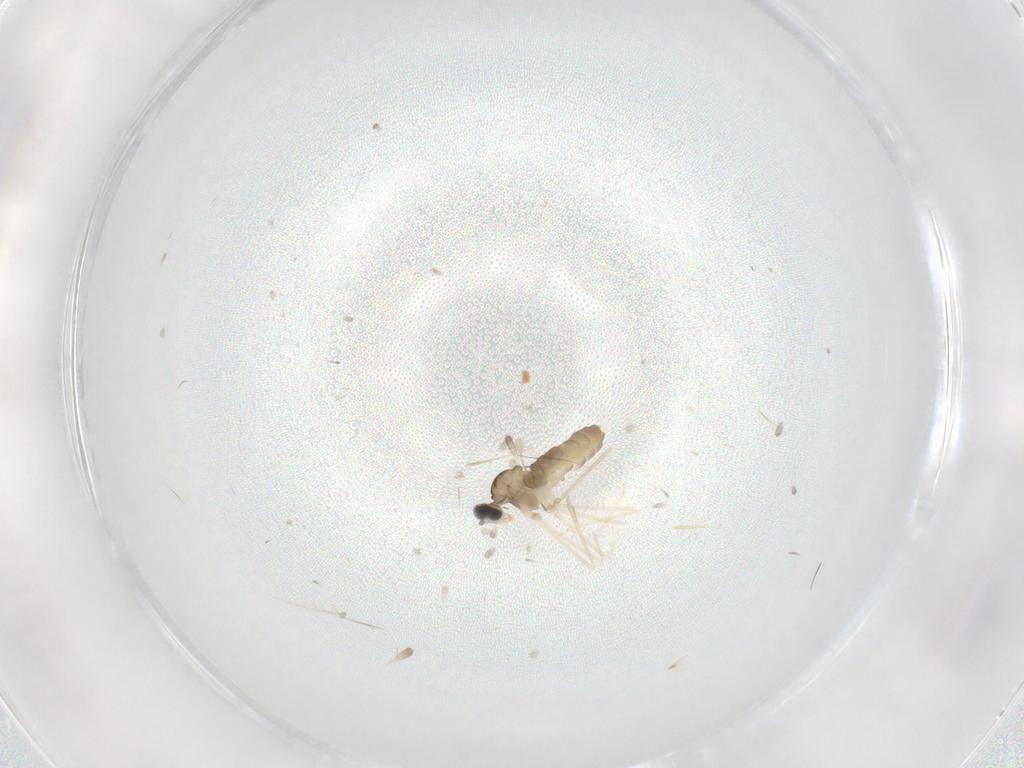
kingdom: Animalia
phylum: Arthropoda
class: Insecta
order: Diptera
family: Cecidomyiidae
